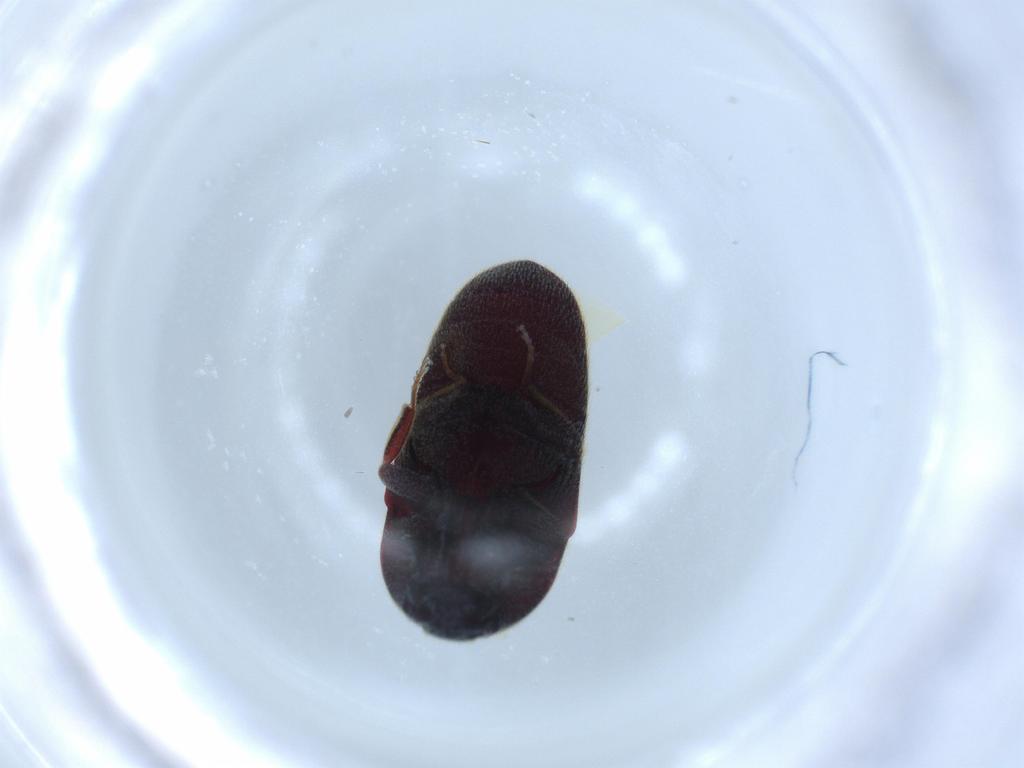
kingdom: Animalia
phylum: Arthropoda
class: Insecta
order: Coleoptera
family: Throscidae
